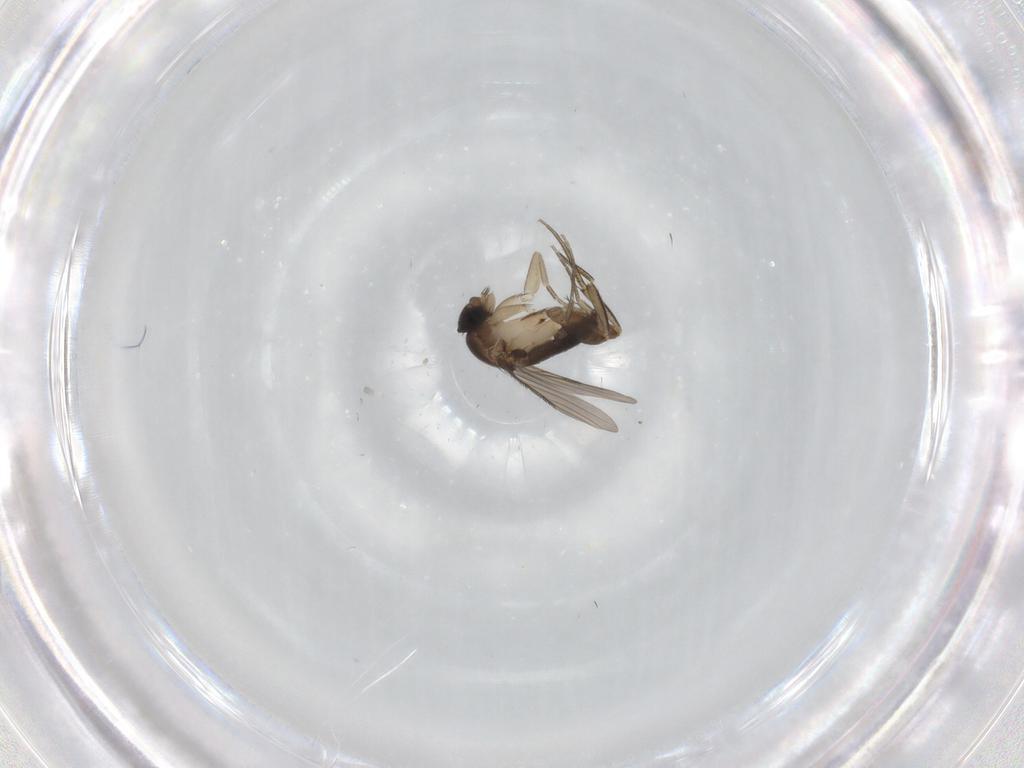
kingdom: Animalia
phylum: Arthropoda
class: Insecta
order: Diptera
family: Phoridae
